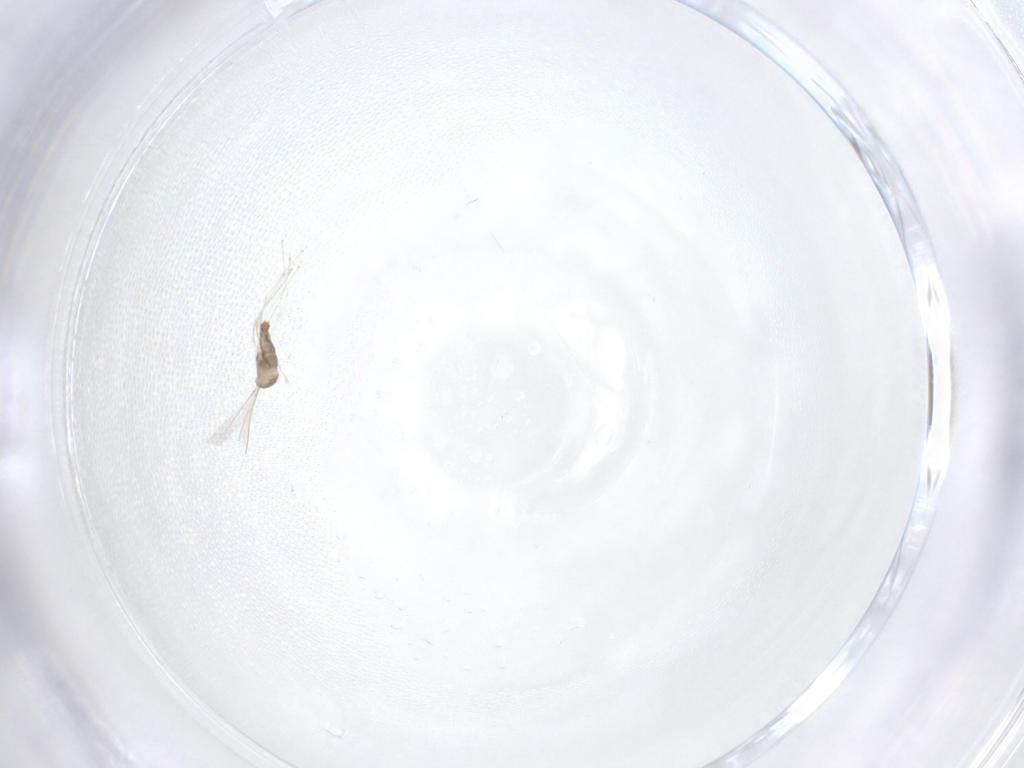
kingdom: Animalia
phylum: Arthropoda
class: Insecta
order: Diptera
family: Cecidomyiidae
